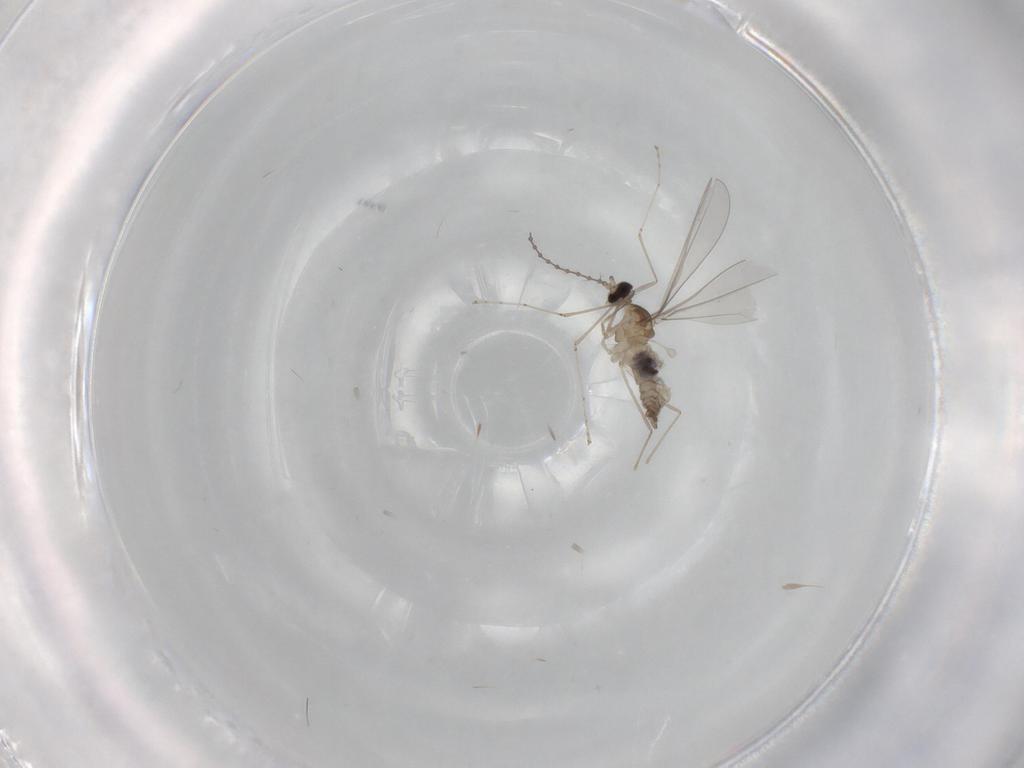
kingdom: Animalia
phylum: Arthropoda
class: Insecta
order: Diptera
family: Cecidomyiidae
